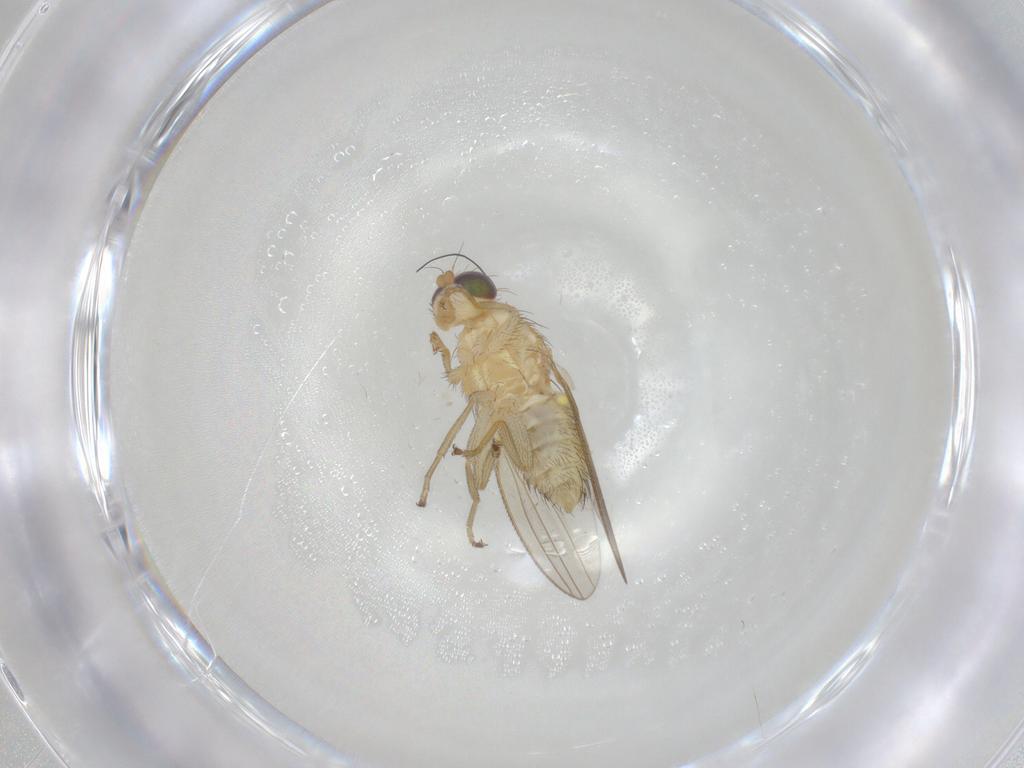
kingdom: Animalia
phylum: Arthropoda
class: Insecta
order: Diptera
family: Chyromyidae
